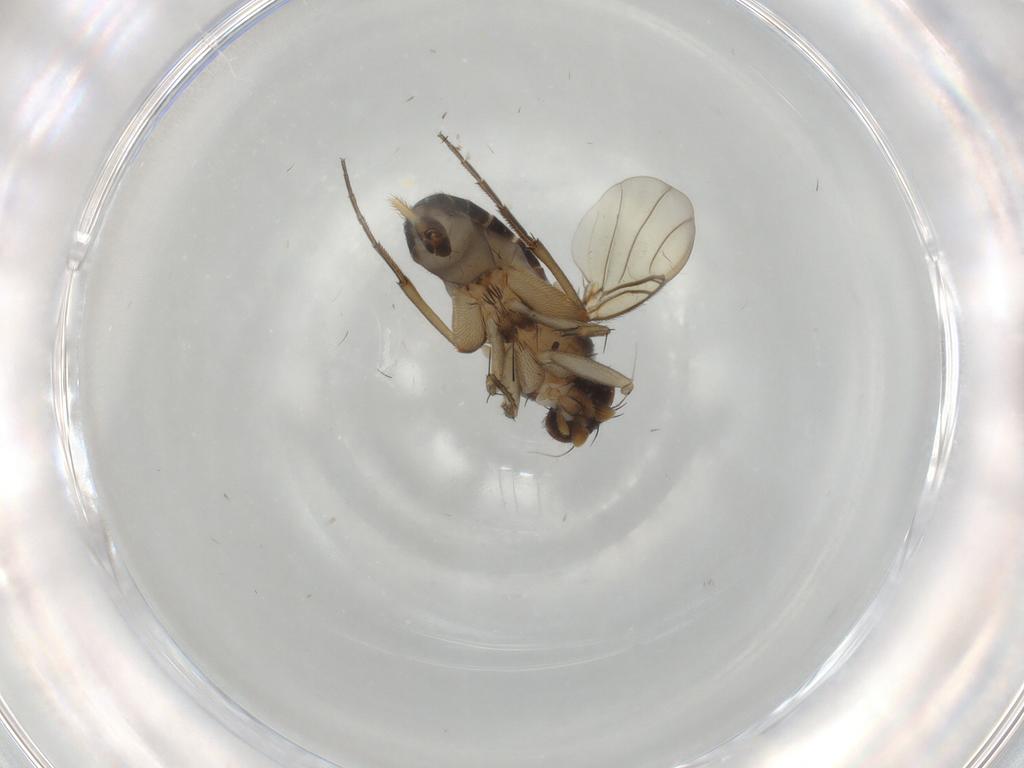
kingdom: Animalia
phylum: Arthropoda
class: Insecta
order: Diptera
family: Phoridae
